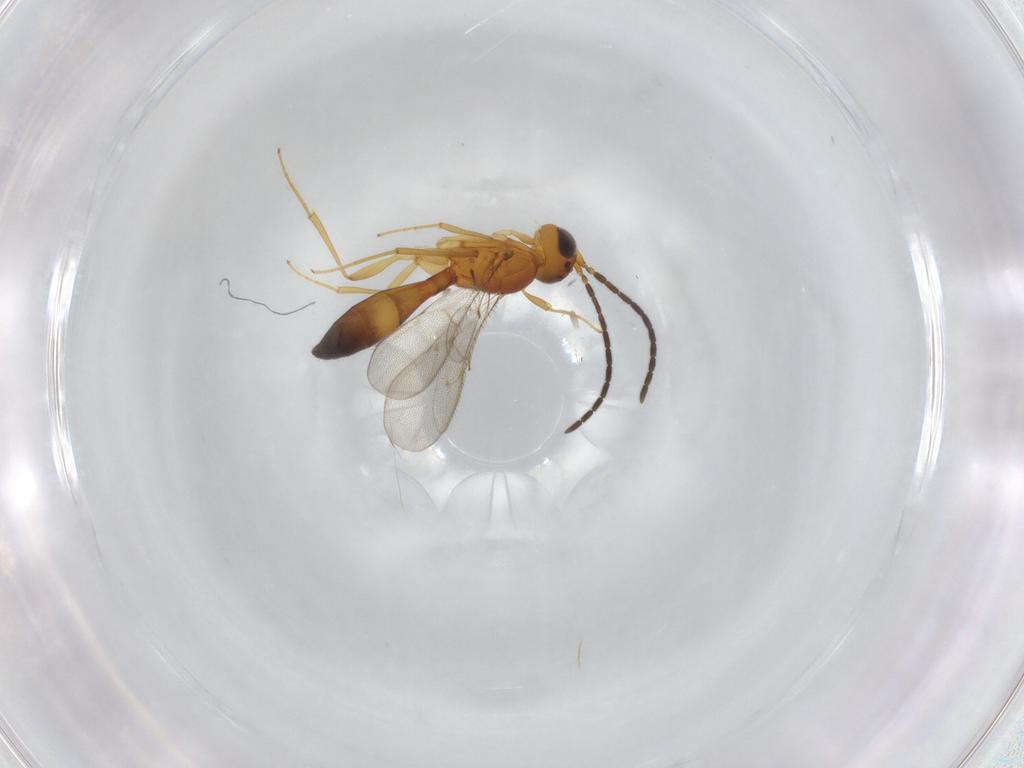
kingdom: Animalia
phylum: Arthropoda
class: Insecta
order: Hymenoptera
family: Scelionidae
